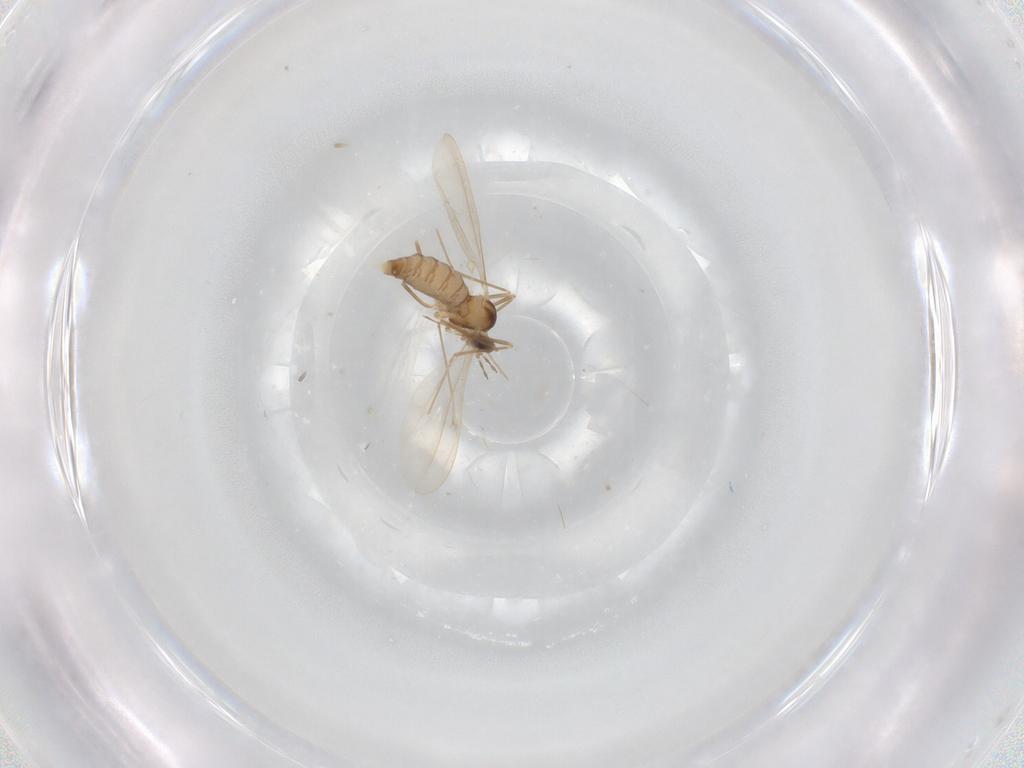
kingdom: Animalia
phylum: Arthropoda
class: Insecta
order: Diptera
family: Cecidomyiidae
